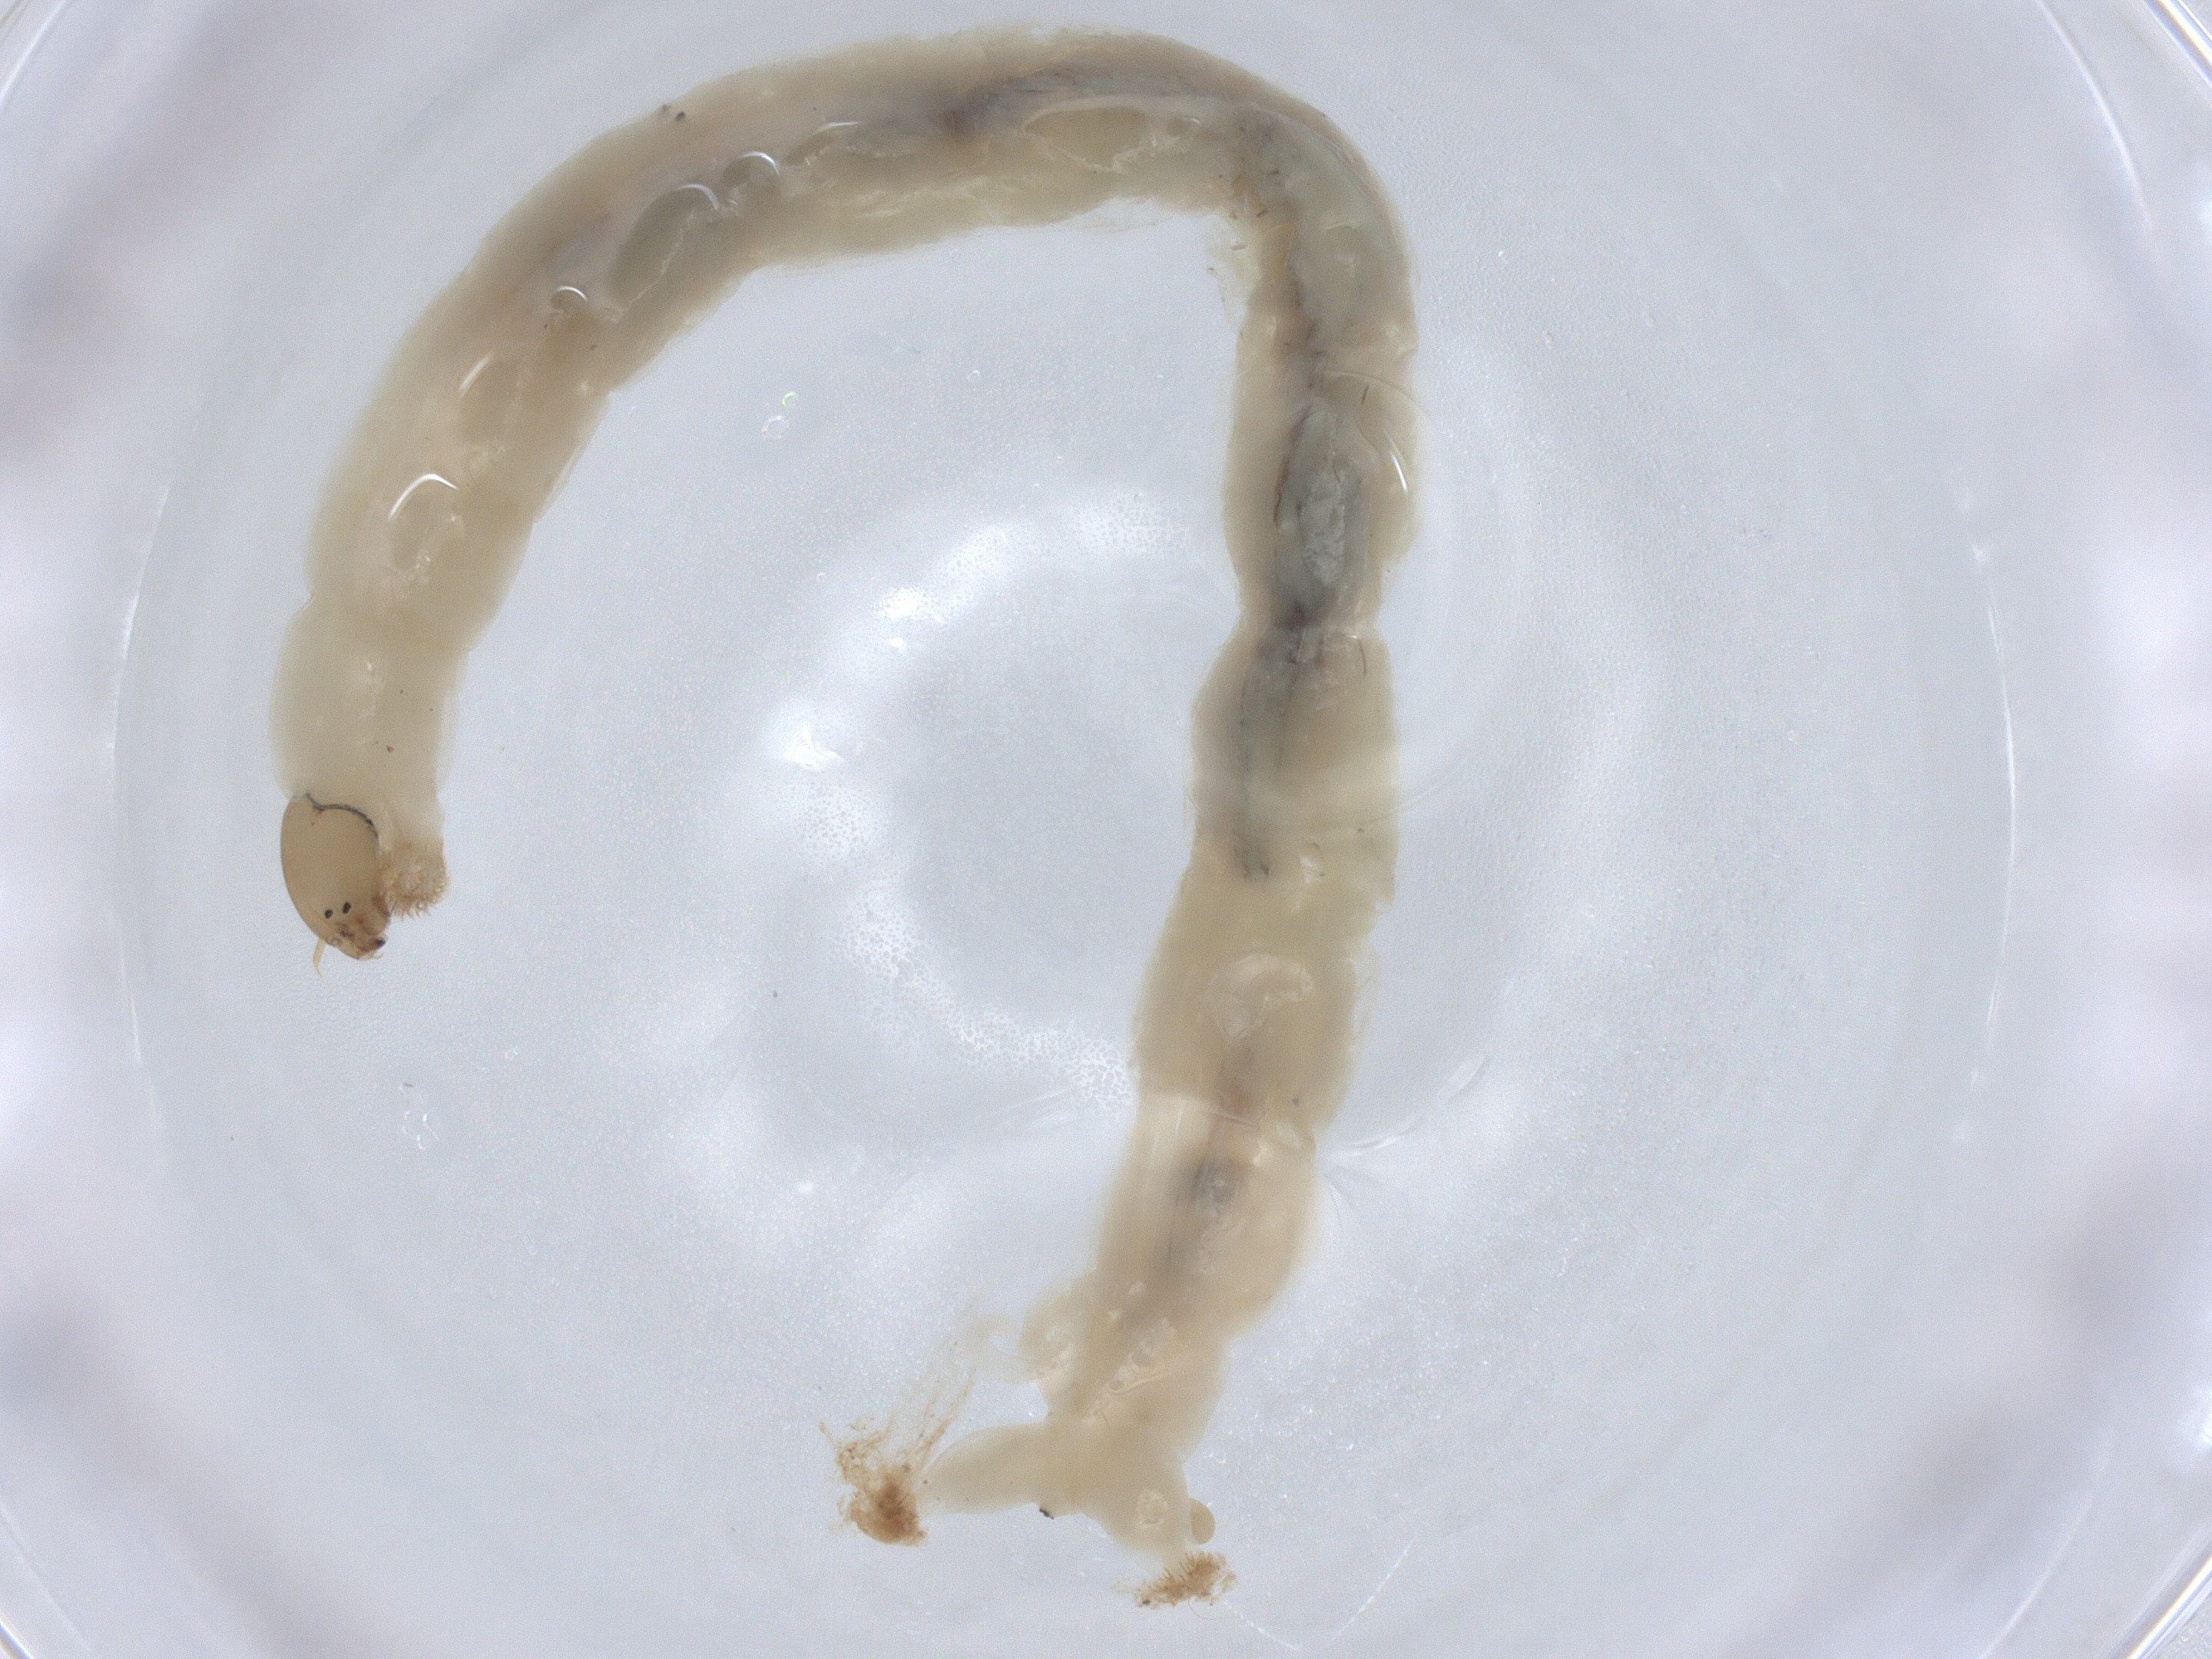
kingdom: Animalia
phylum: Arthropoda
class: Insecta
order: Diptera
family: Chironomidae
